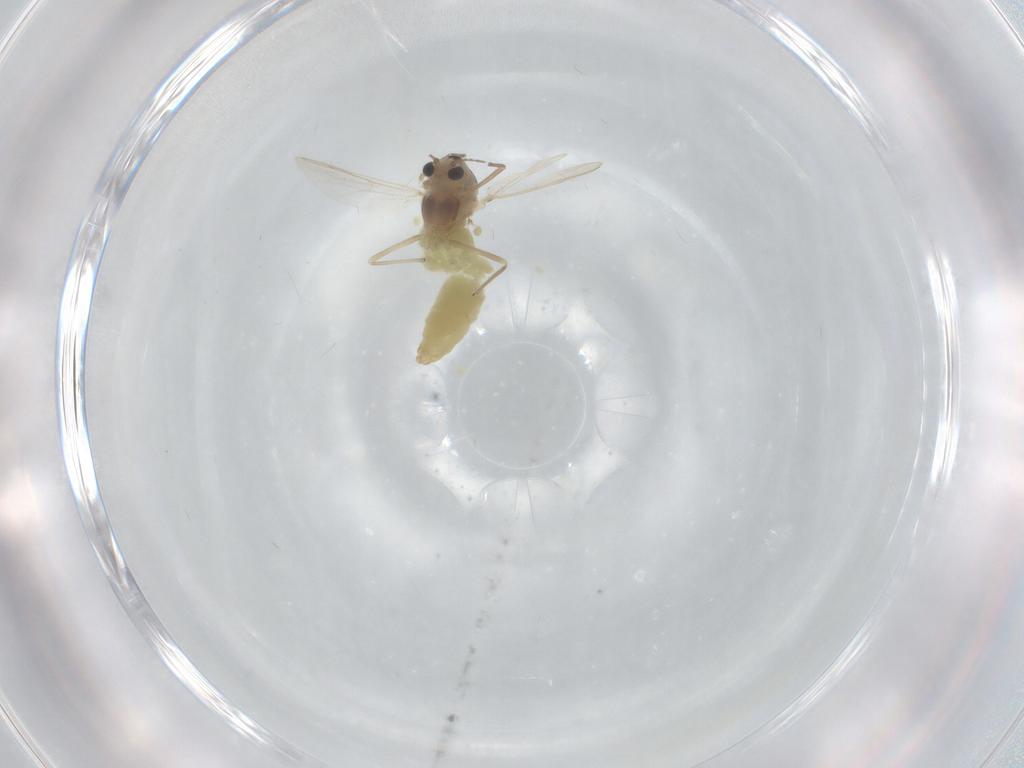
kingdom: Animalia
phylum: Arthropoda
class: Insecta
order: Diptera
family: Chironomidae
